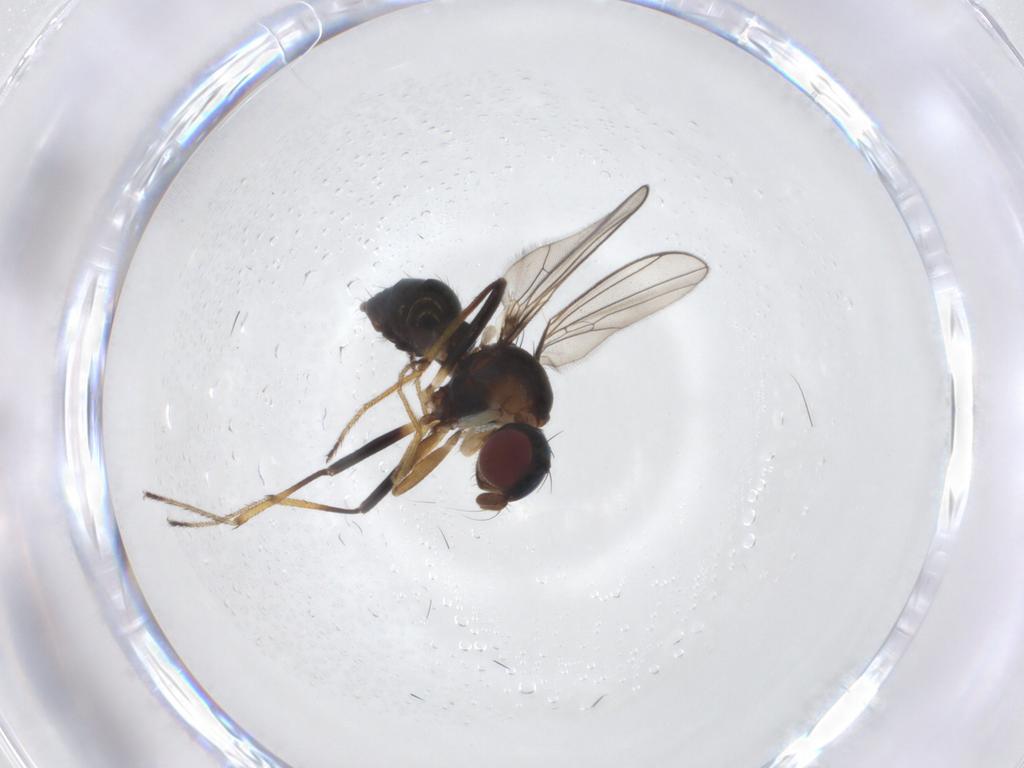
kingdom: Animalia
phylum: Arthropoda
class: Insecta
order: Diptera
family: Sepsidae
